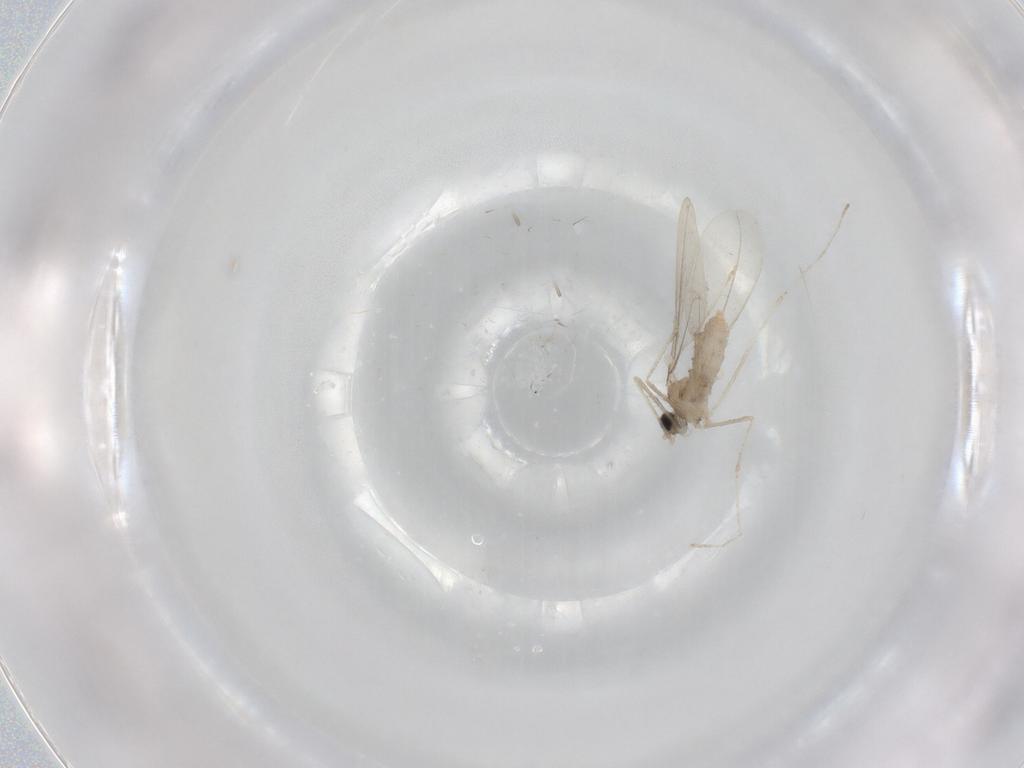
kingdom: Animalia
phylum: Arthropoda
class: Insecta
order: Diptera
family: Cecidomyiidae
